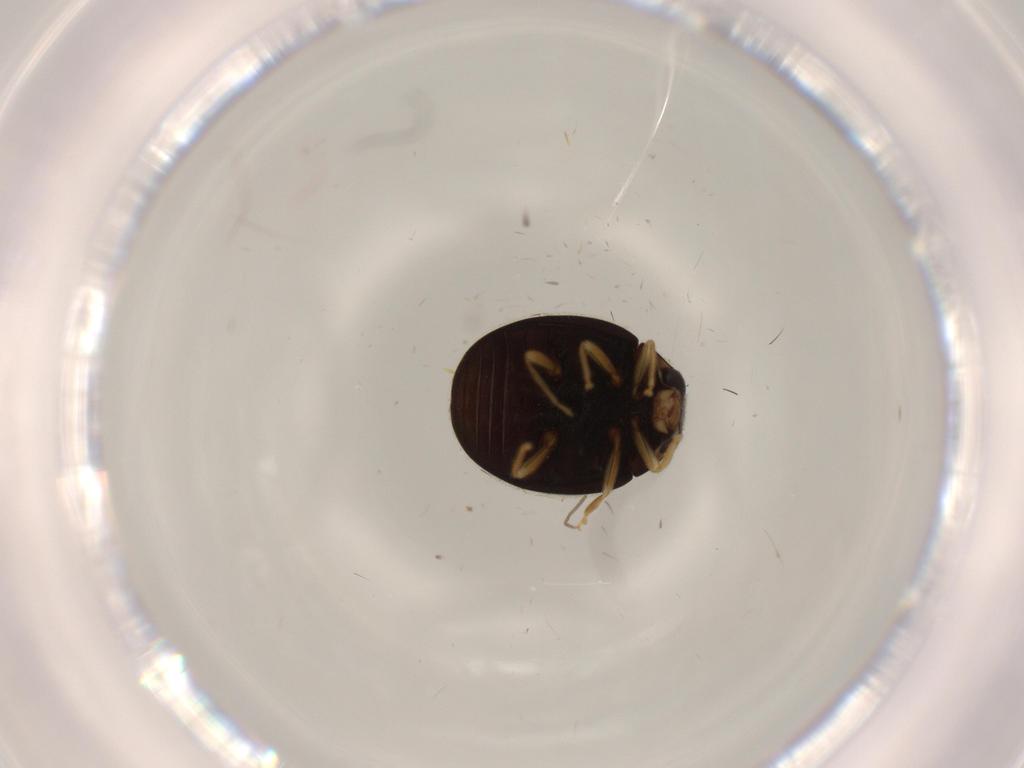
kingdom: Animalia
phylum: Arthropoda
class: Insecta
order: Coleoptera
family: Coccinellidae
